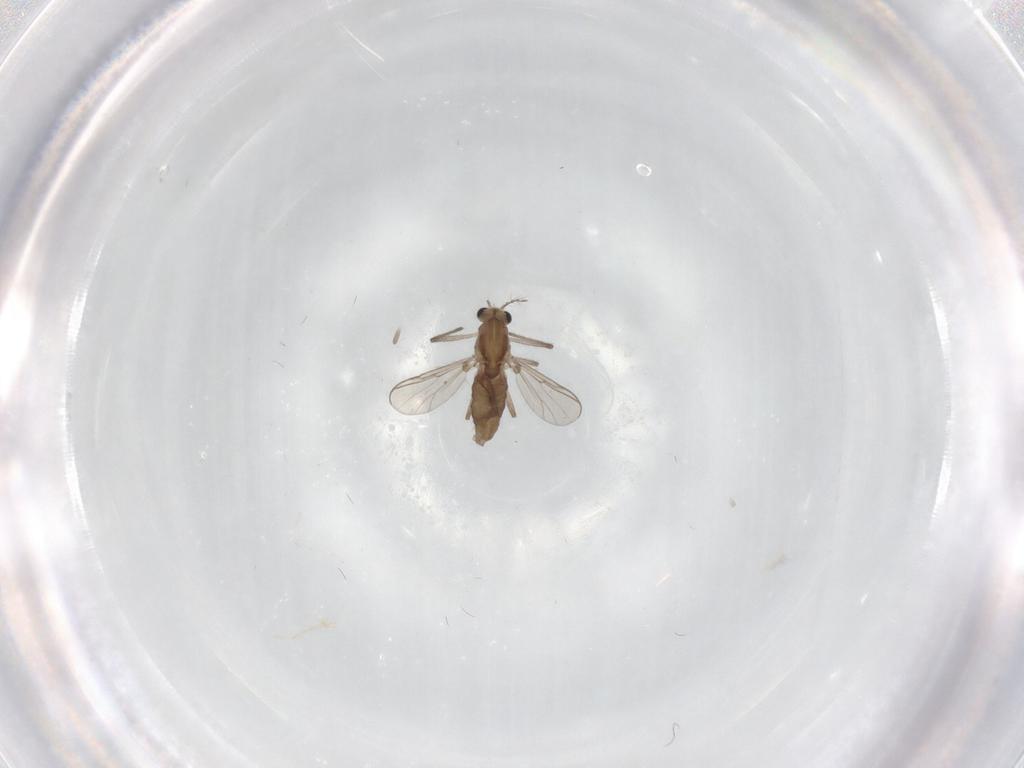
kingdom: Animalia
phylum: Arthropoda
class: Insecta
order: Diptera
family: Chironomidae
